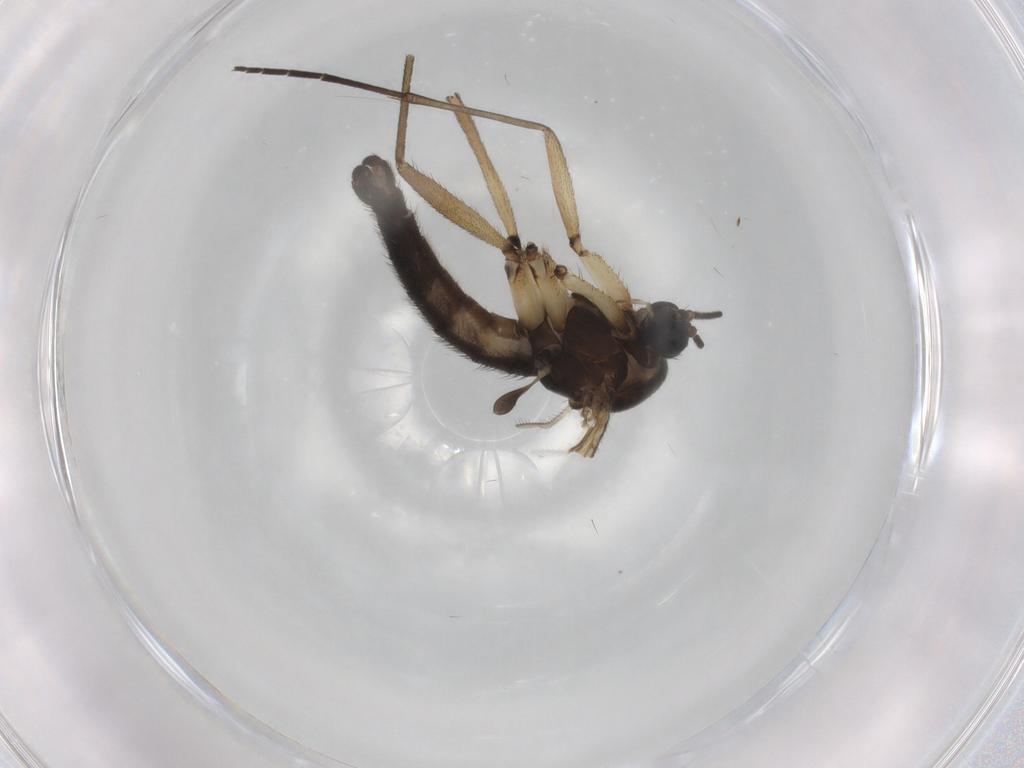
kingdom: Animalia
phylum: Arthropoda
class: Insecta
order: Diptera
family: Sciaridae
